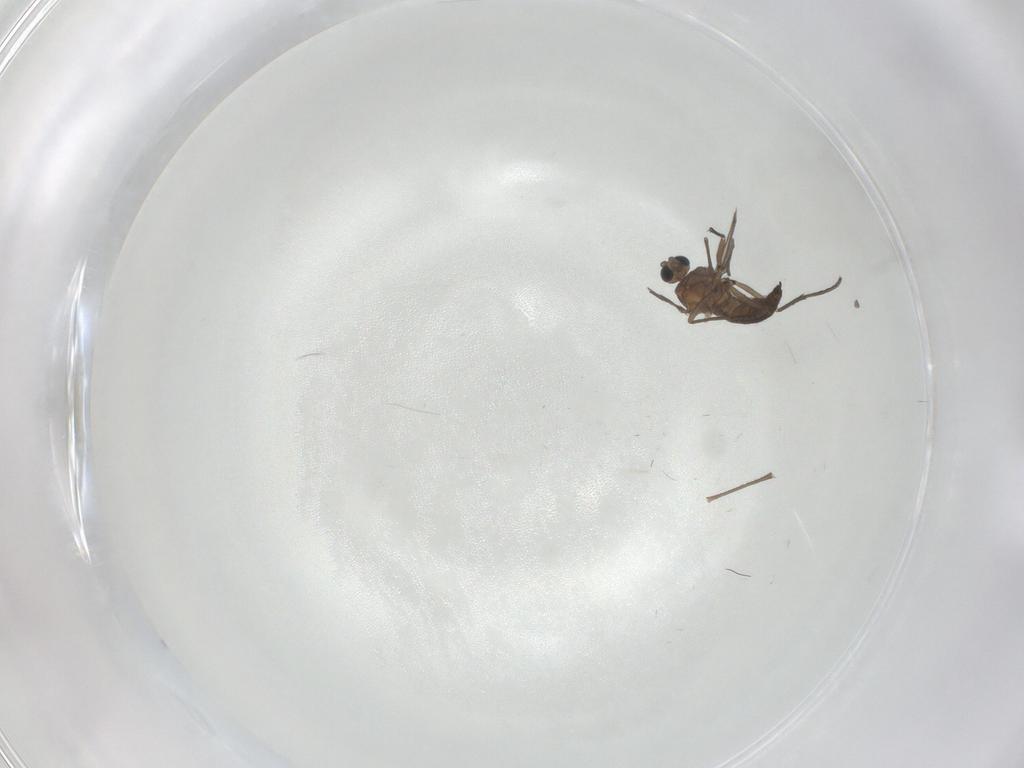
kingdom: Animalia
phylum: Arthropoda
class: Insecta
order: Diptera
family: Sciaridae
